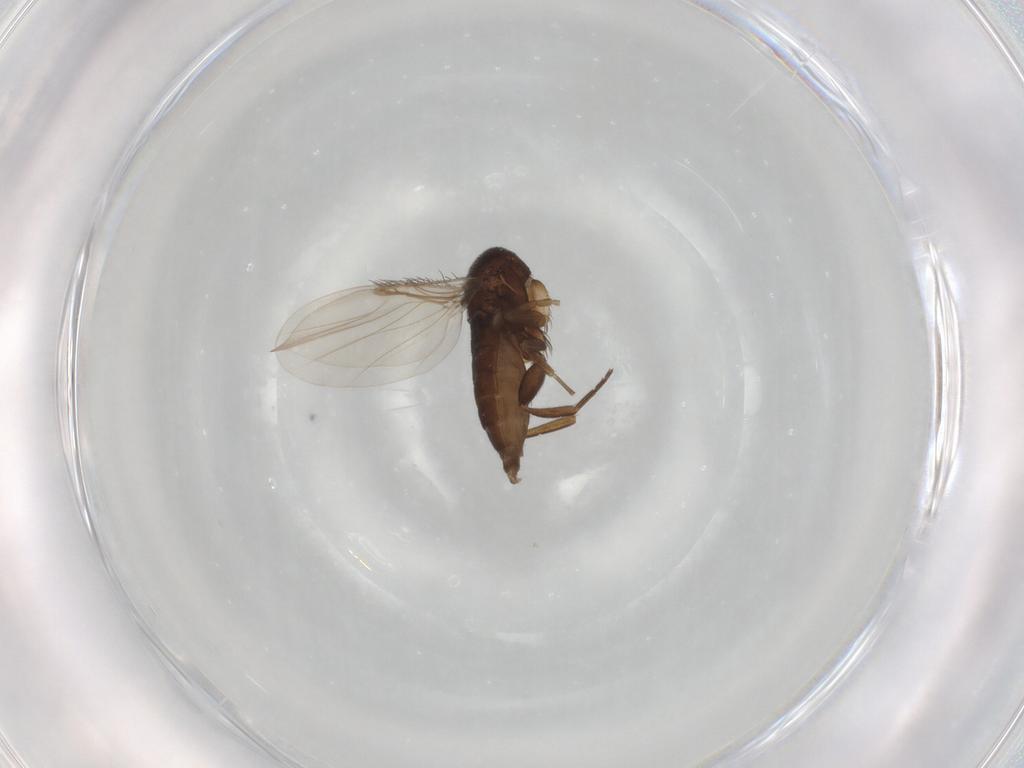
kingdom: Animalia
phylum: Arthropoda
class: Insecta
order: Diptera
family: Phoridae
